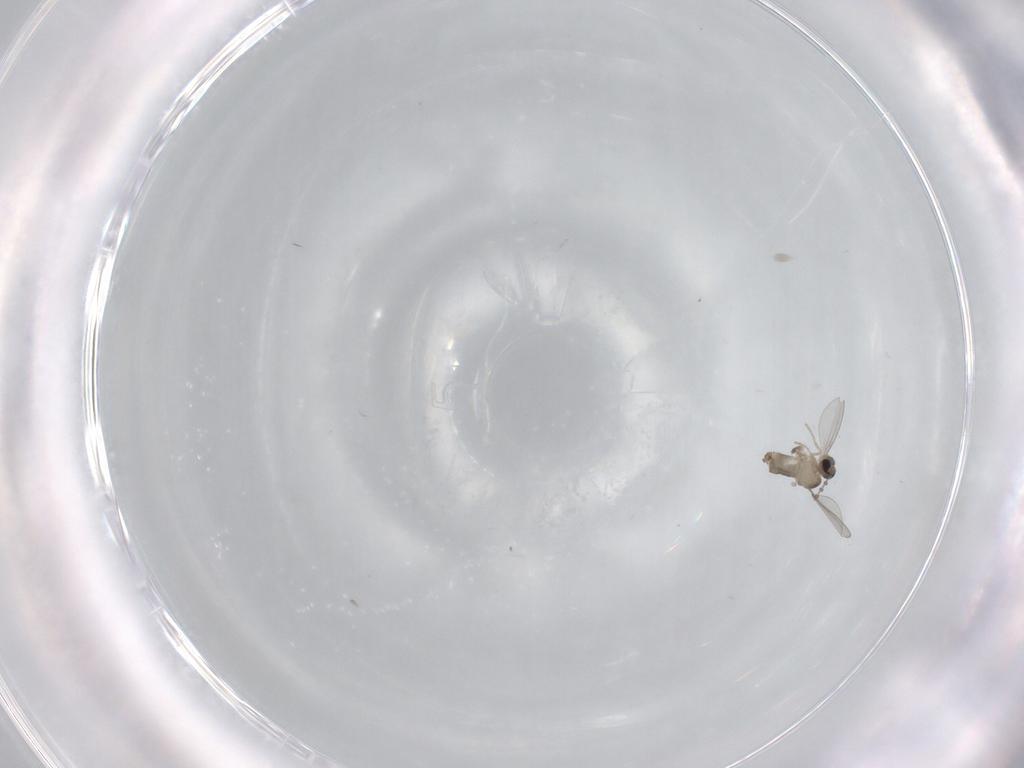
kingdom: Animalia
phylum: Arthropoda
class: Insecta
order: Diptera
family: Cecidomyiidae
